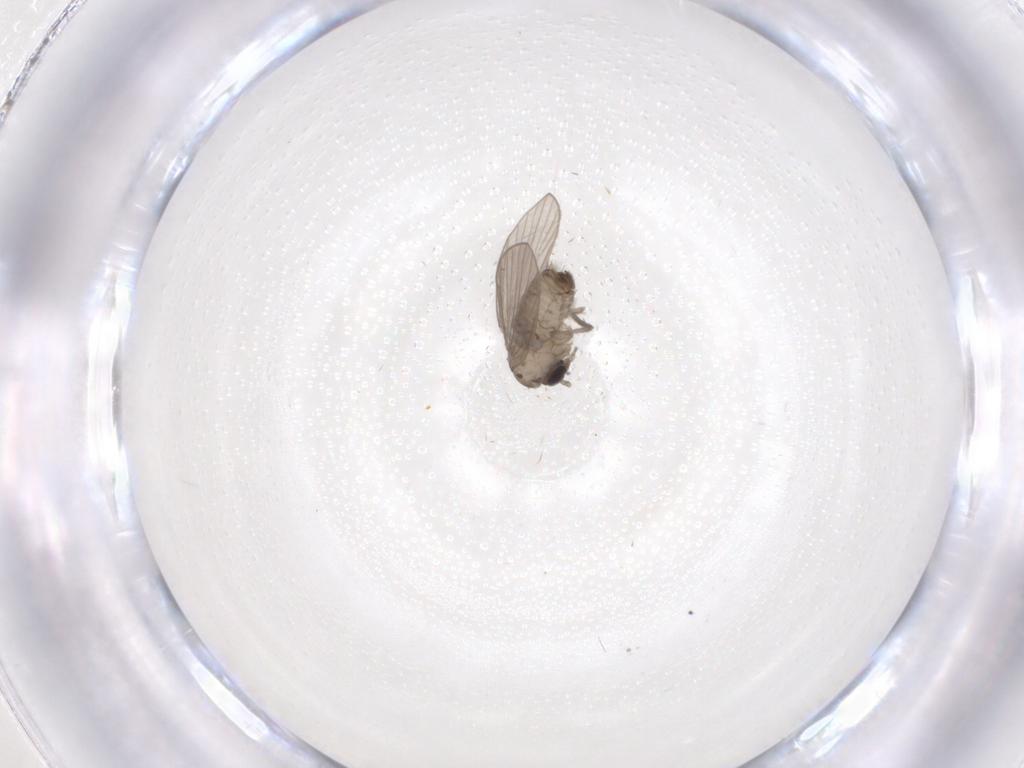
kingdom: Animalia
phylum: Arthropoda
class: Insecta
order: Diptera
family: Psychodidae
